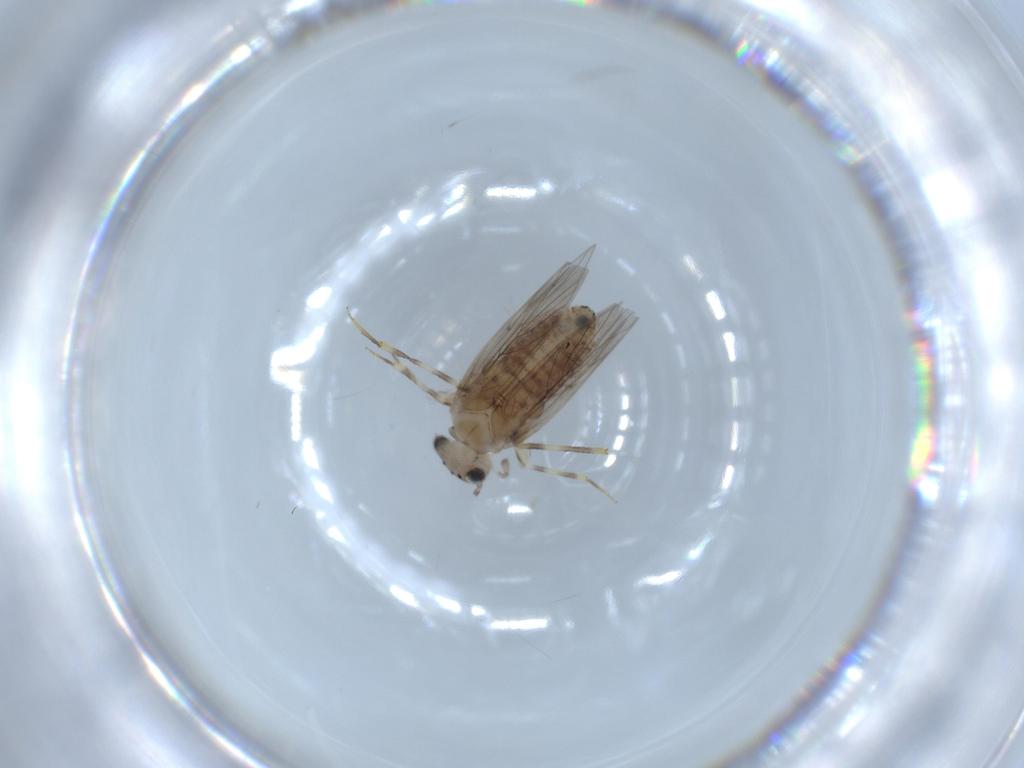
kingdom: Animalia
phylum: Arthropoda
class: Insecta
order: Psocodea
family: Lepidopsocidae
